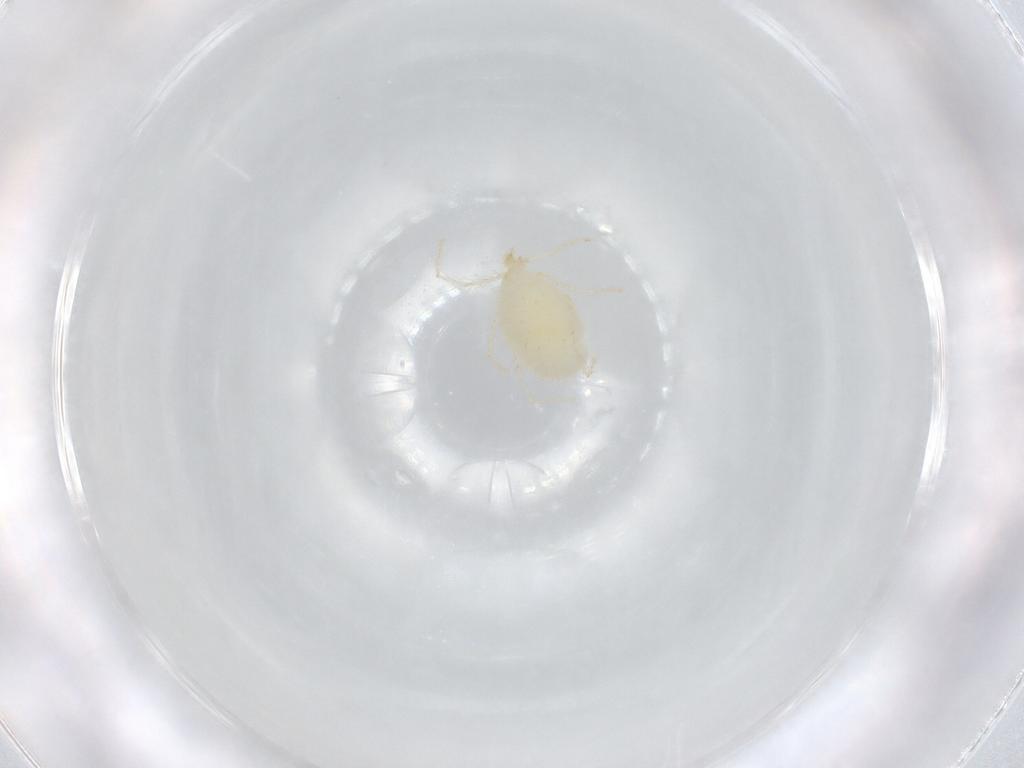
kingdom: Animalia
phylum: Arthropoda
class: Arachnida
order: Trombidiformes
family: Erythraeidae
